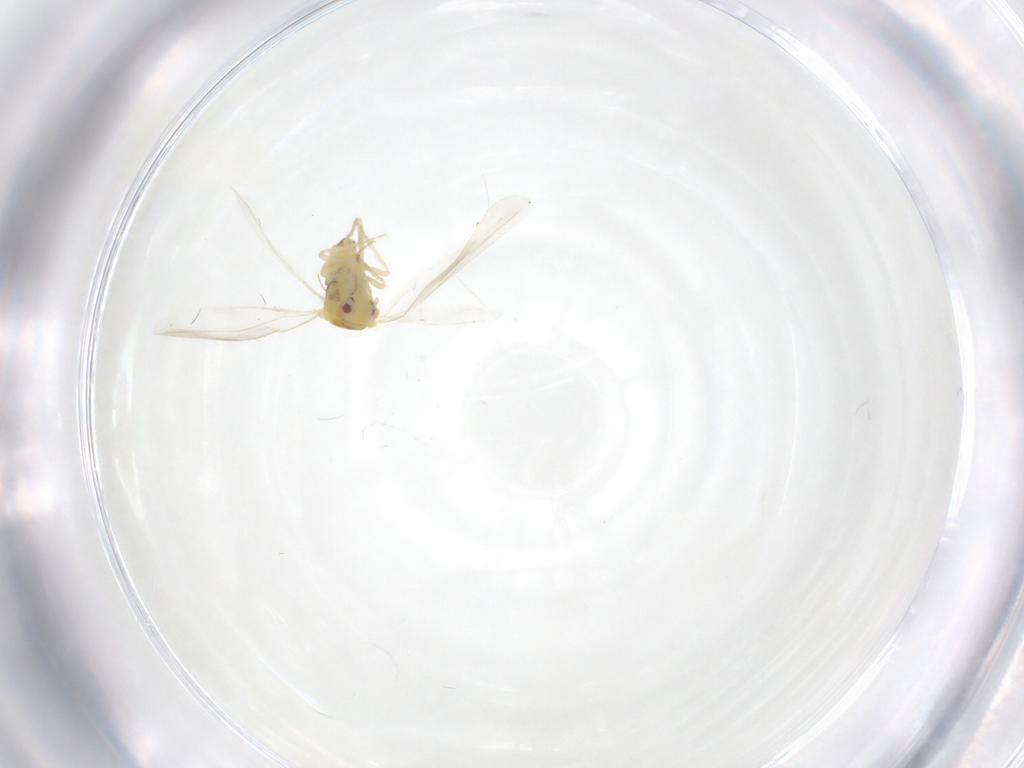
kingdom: Animalia
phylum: Arthropoda
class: Insecta
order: Hemiptera
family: Aleyrodidae
